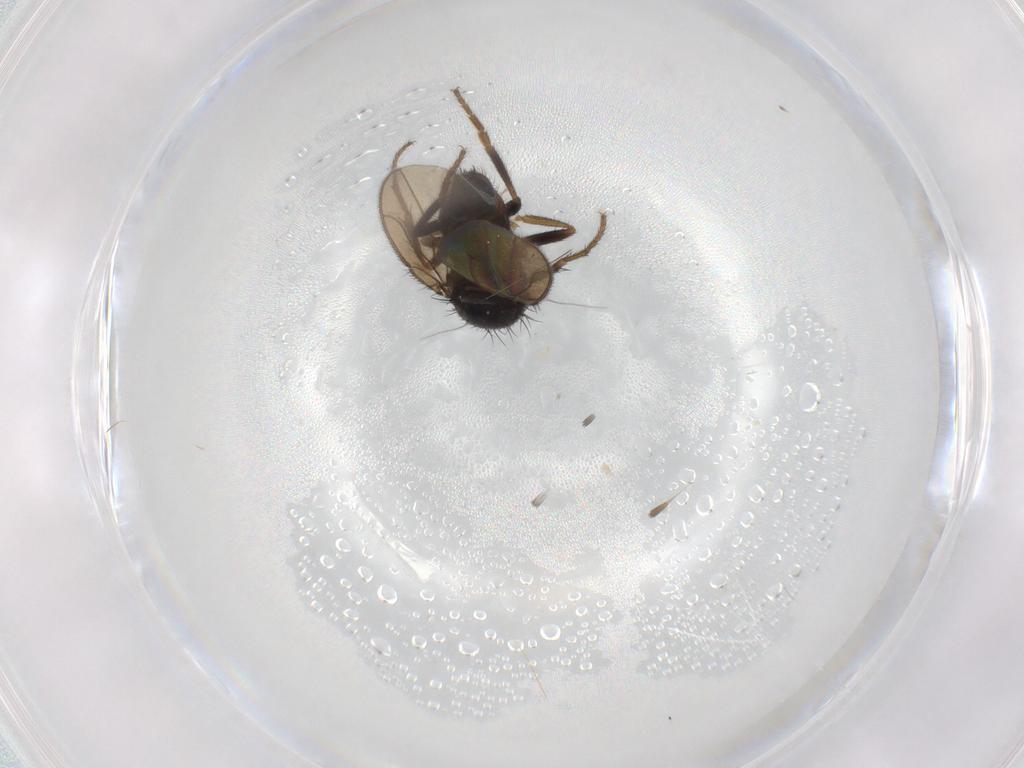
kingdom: Animalia
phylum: Arthropoda
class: Insecta
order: Diptera
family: Sphaeroceridae
